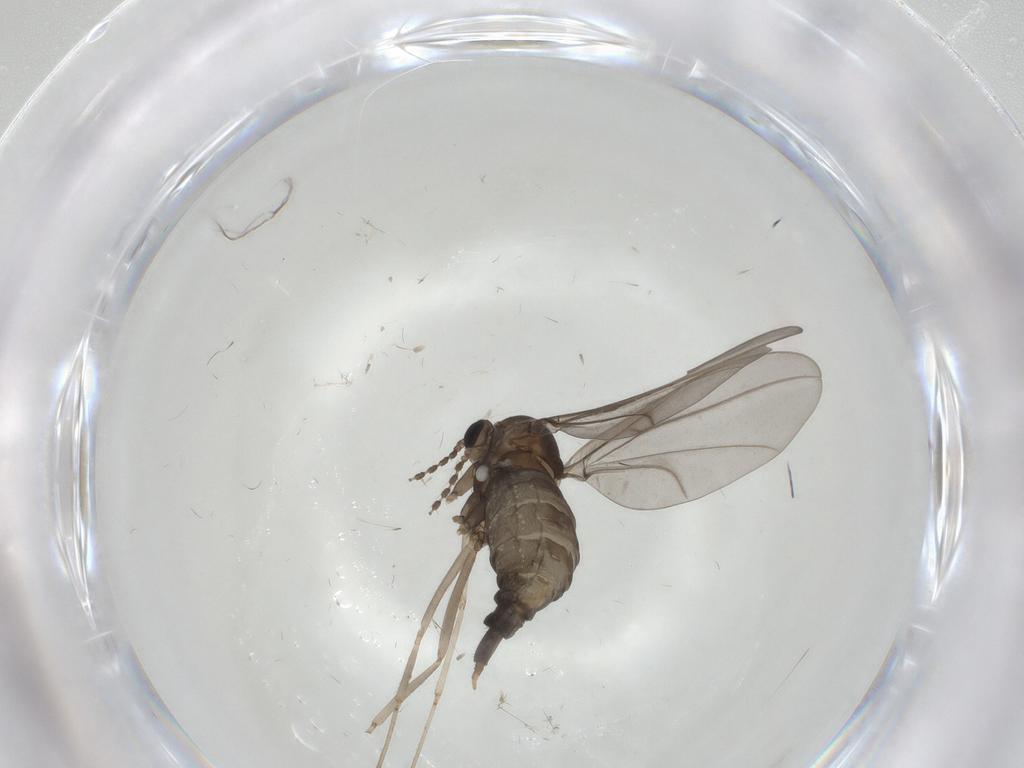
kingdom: Animalia
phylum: Arthropoda
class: Insecta
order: Diptera
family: Cecidomyiidae
